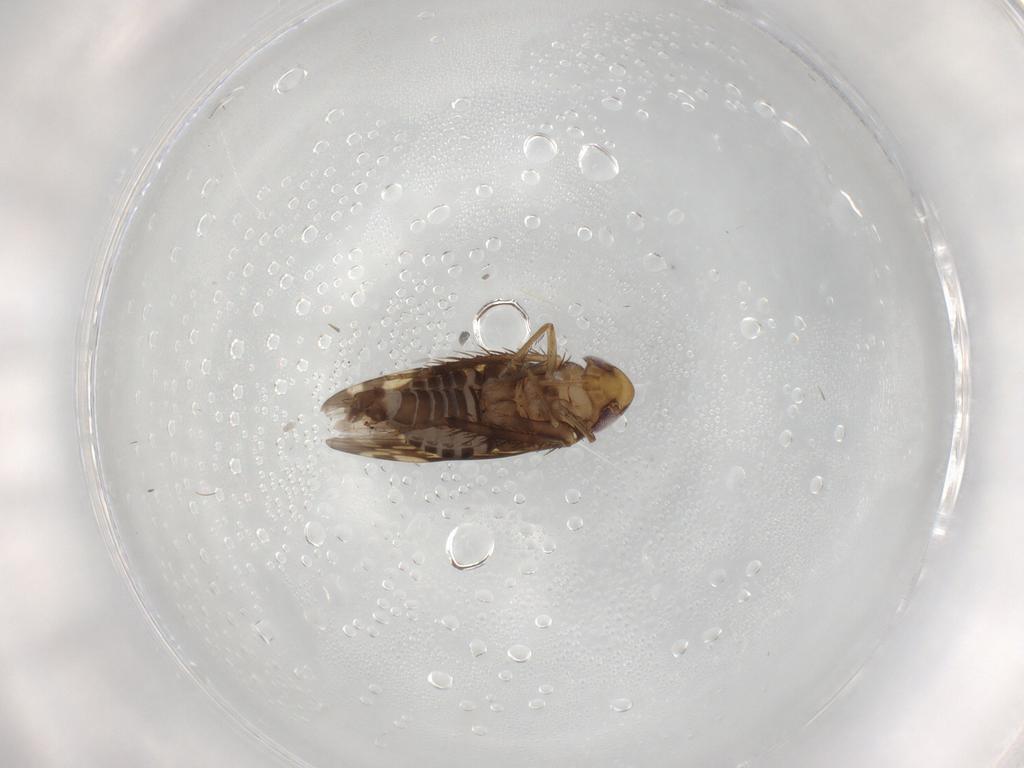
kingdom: Animalia
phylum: Arthropoda
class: Insecta
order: Hemiptera
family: Cicadellidae
